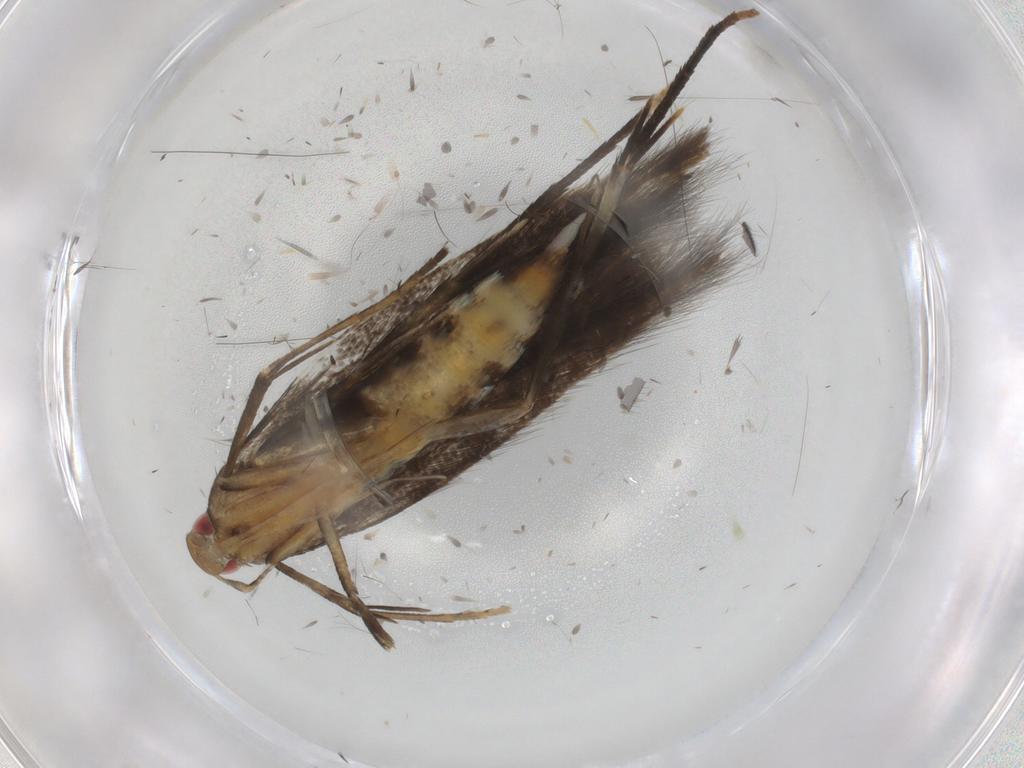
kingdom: Animalia
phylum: Arthropoda
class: Insecta
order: Lepidoptera
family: Cosmopterigidae
